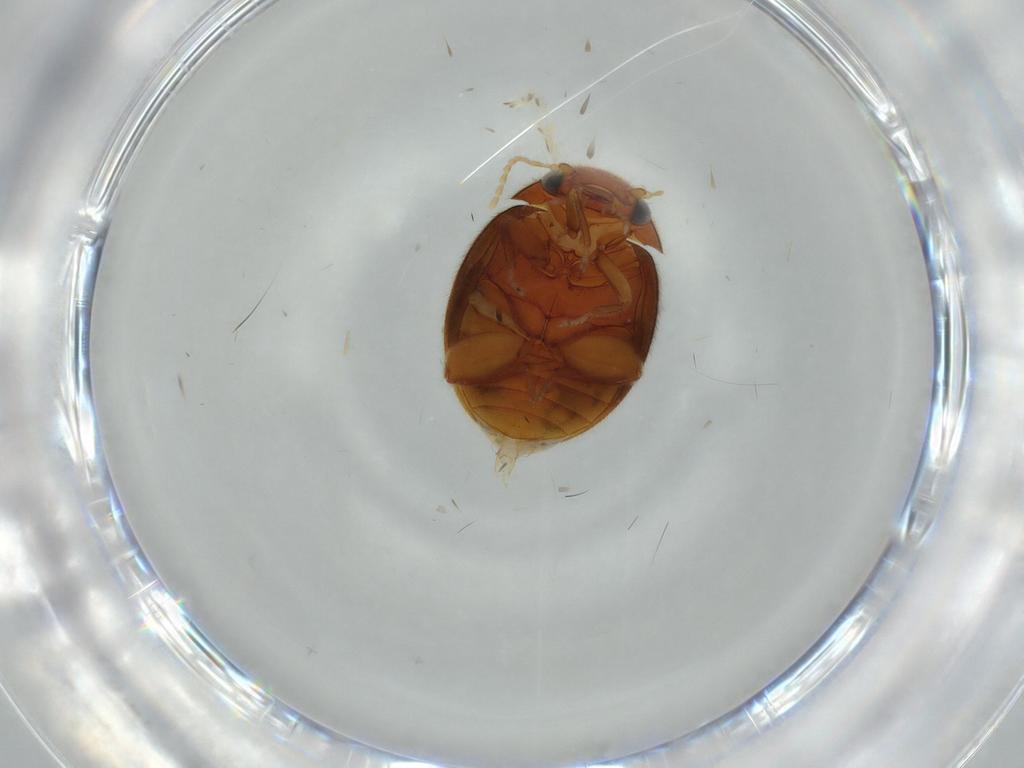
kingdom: Animalia
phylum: Arthropoda
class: Insecta
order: Coleoptera
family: Scirtidae
